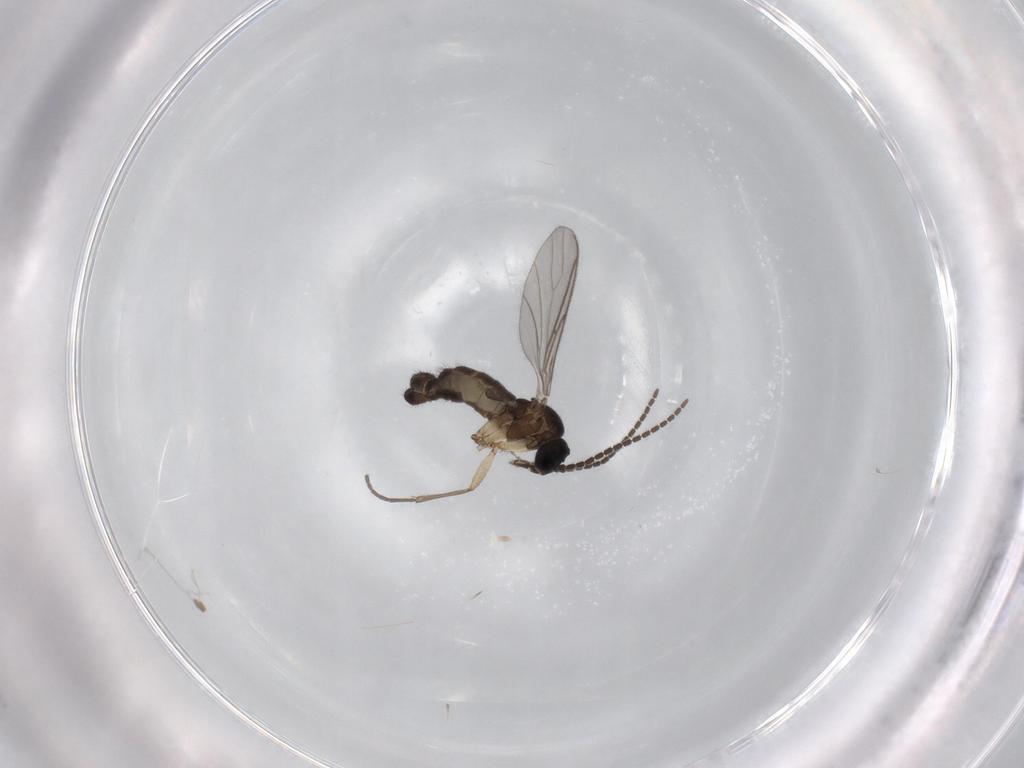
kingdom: Animalia
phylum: Arthropoda
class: Insecta
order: Diptera
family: Sciaridae
